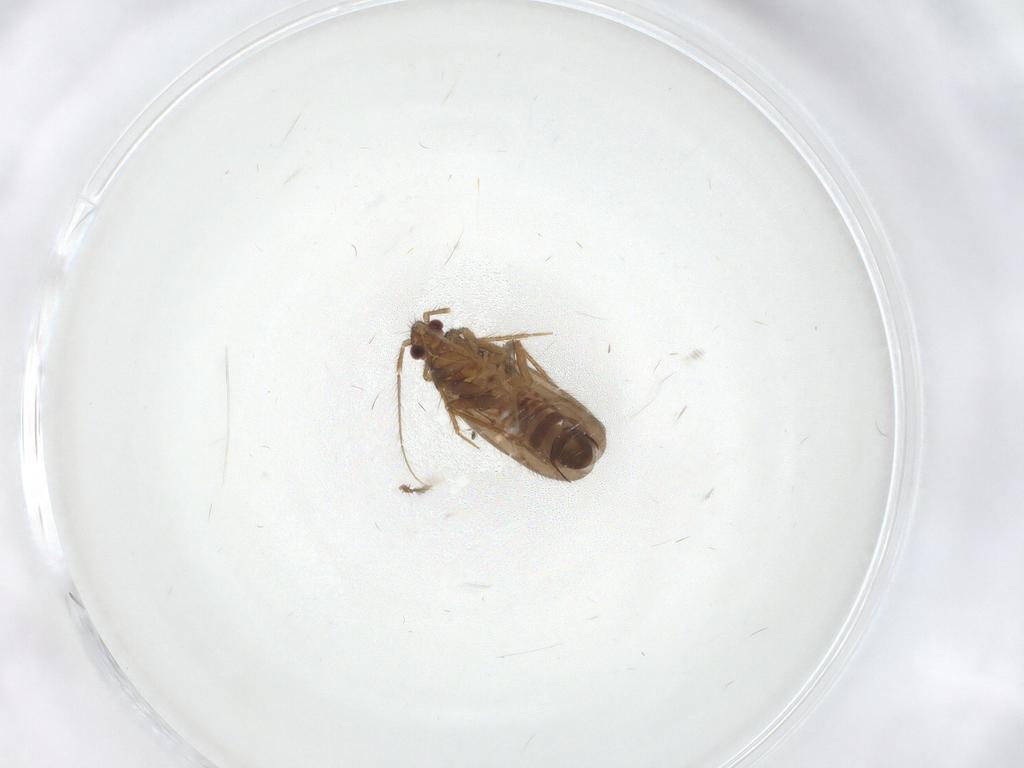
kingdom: Animalia
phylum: Arthropoda
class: Insecta
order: Hemiptera
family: Ceratocombidae
